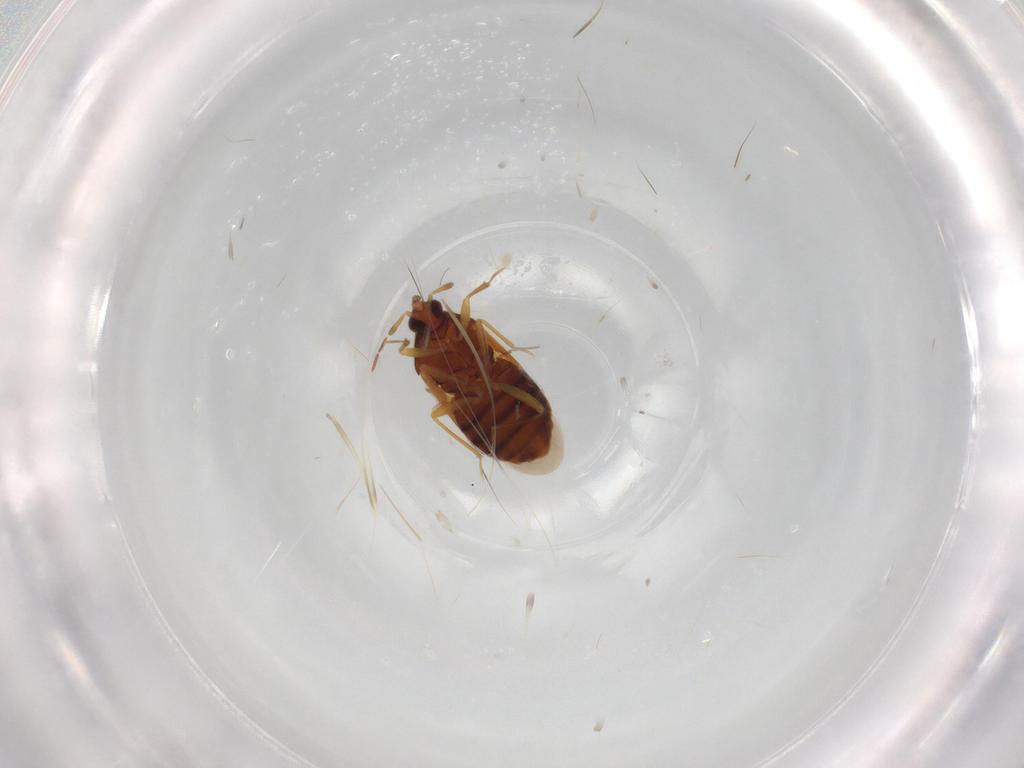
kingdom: Animalia
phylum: Arthropoda
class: Insecta
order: Hemiptera
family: Anthocoridae
